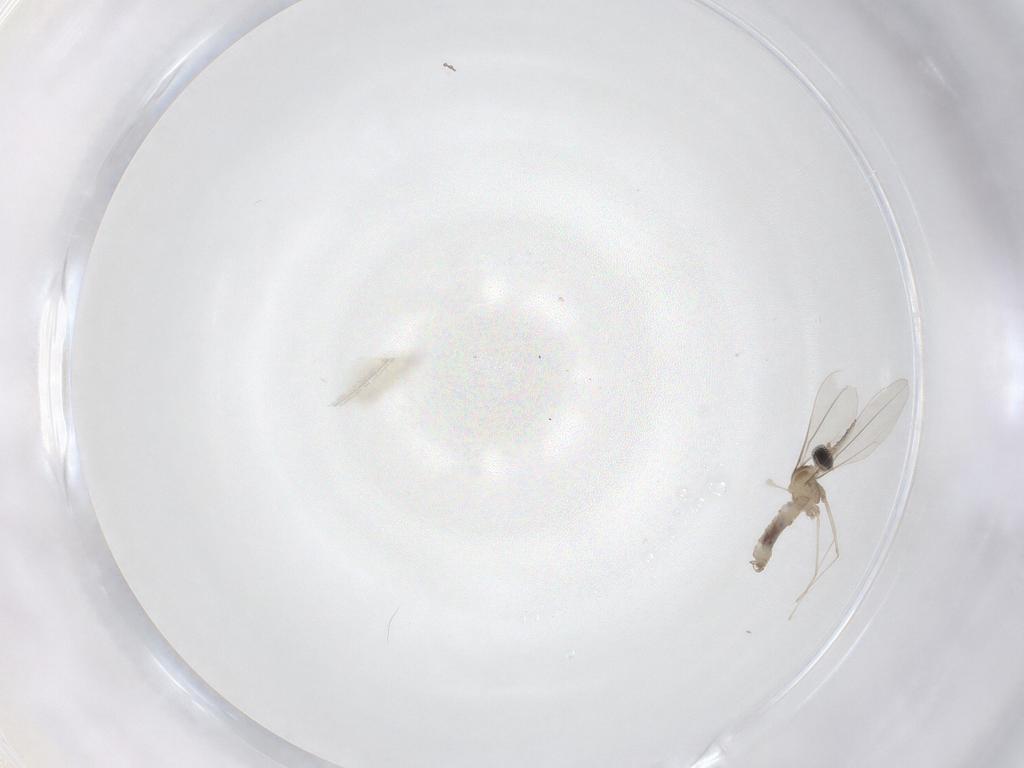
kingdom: Animalia
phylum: Arthropoda
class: Insecta
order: Diptera
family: Cecidomyiidae
